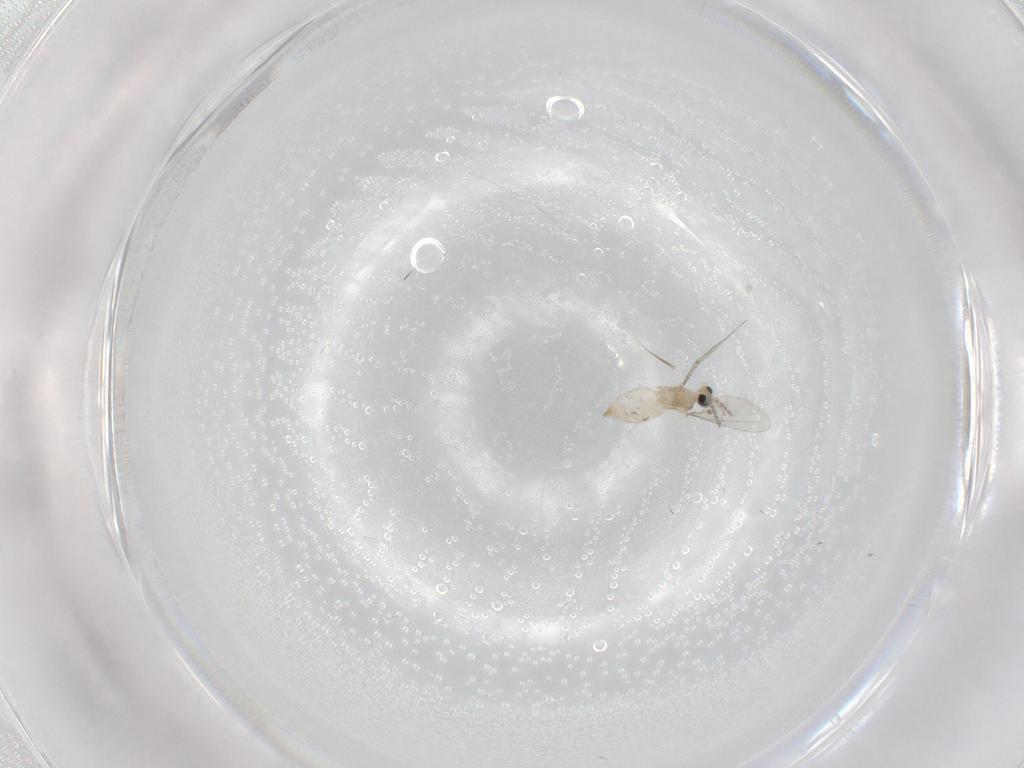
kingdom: Animalia
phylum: Arthropoda
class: Insecta
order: Diptera
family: Cecidomyiidae
